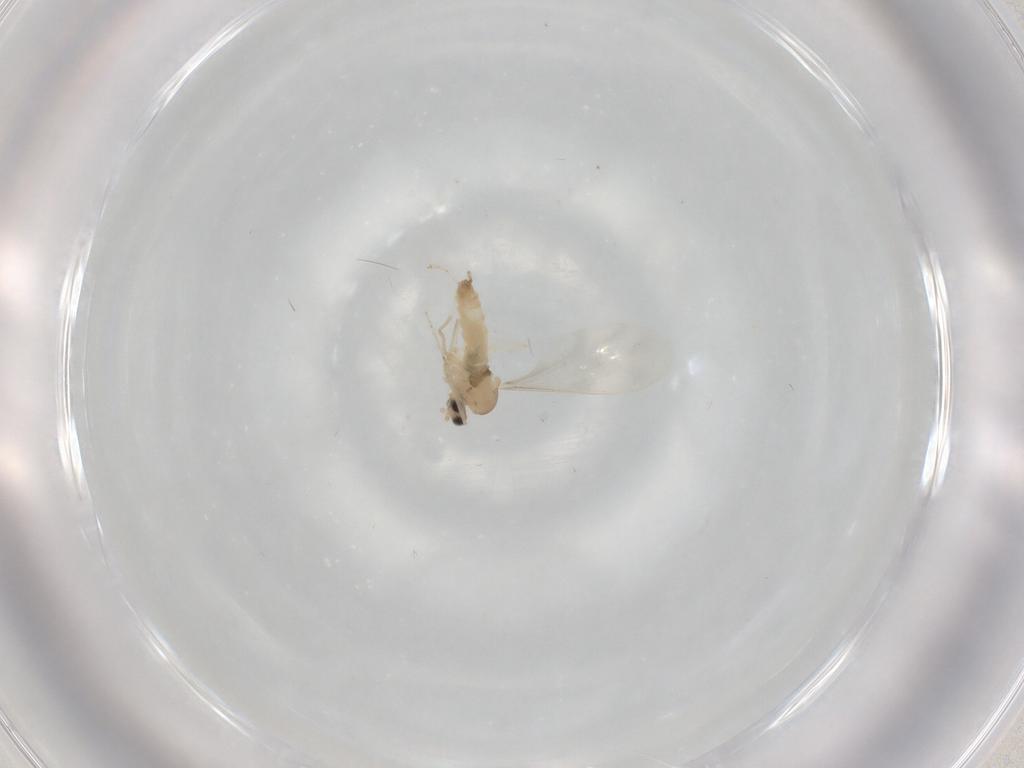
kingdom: Animalia
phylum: Arthropoda
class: Insecta
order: Diptera
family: Cecidomyiidae
